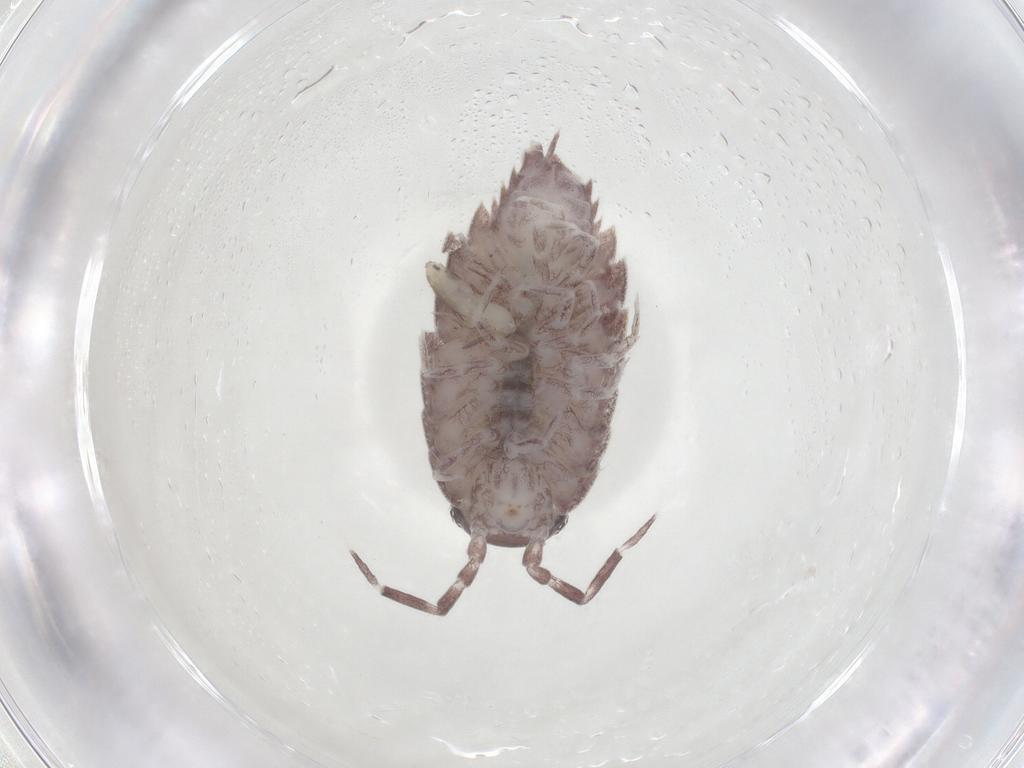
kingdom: Animalia
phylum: Arthropoda
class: Collembola
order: Entomobryomorpha
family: Entomobryidae
